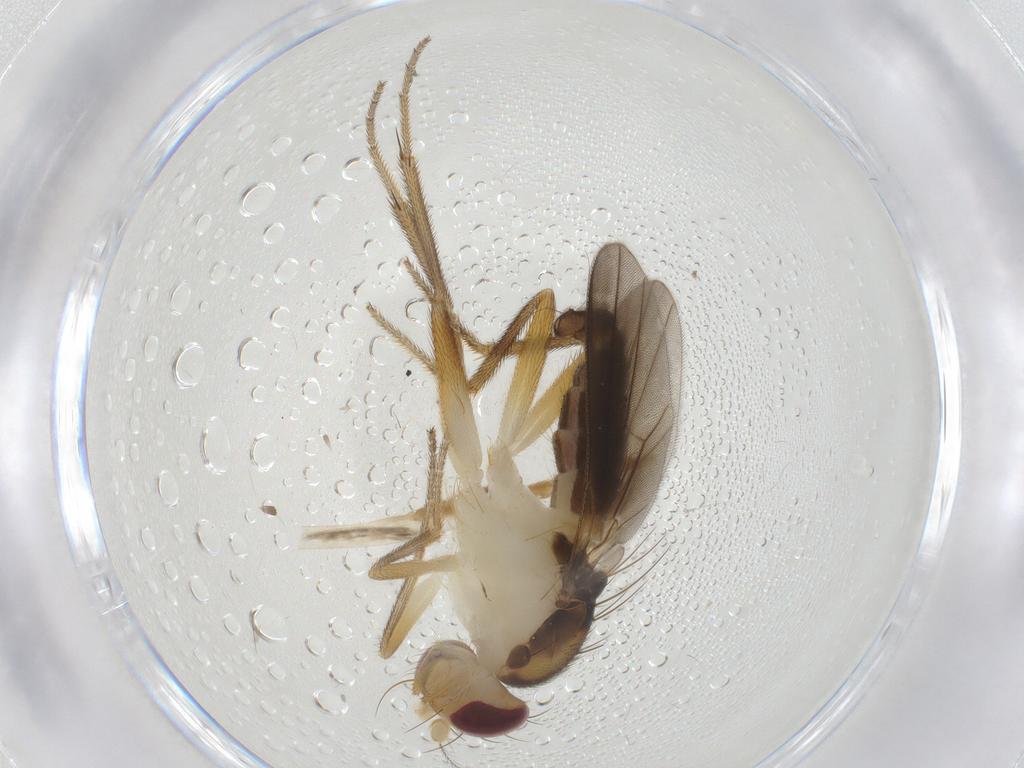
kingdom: Animalia
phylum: Arthropoda
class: Insecta
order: Diptera
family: Clusiidae
